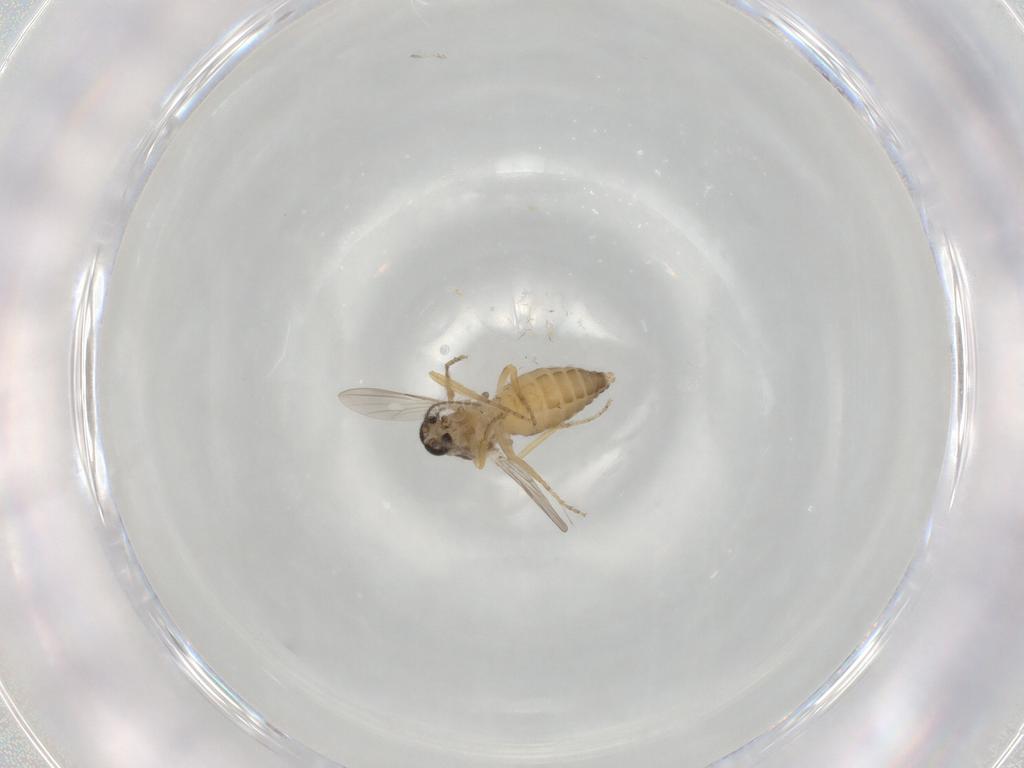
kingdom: Animalia
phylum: Arthropoda
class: Insecta
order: Diptera
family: Ceratopogonidae
